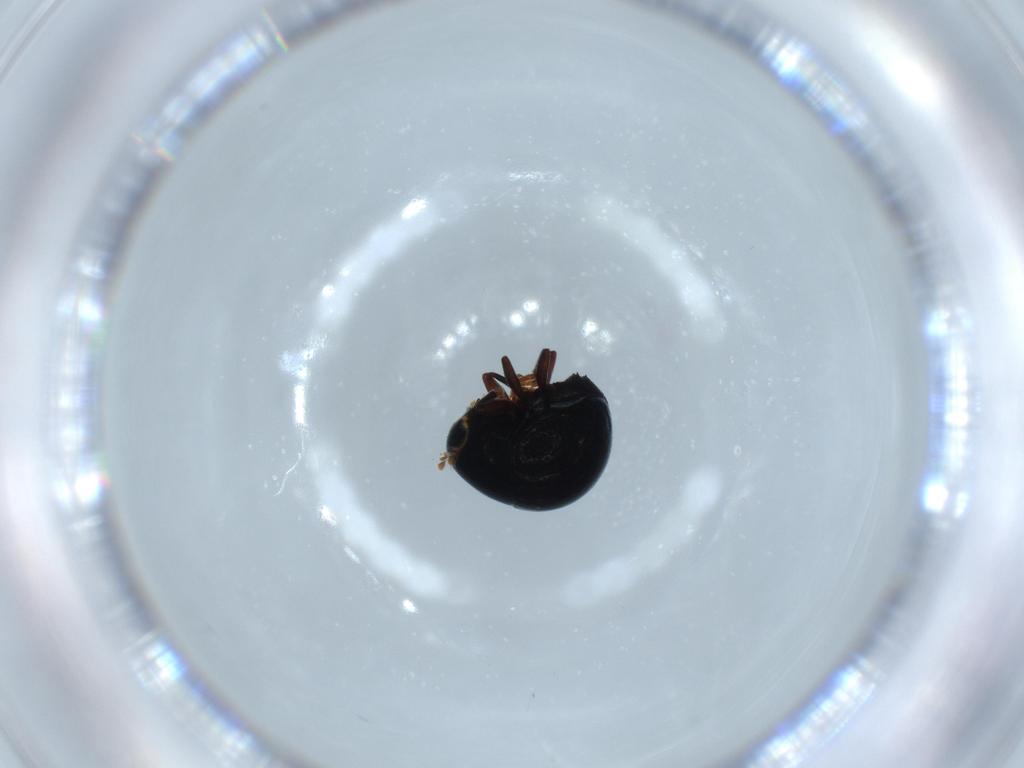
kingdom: Animalia
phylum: Arthropoda
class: Insecta
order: Coleoptera
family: Anthribidae
